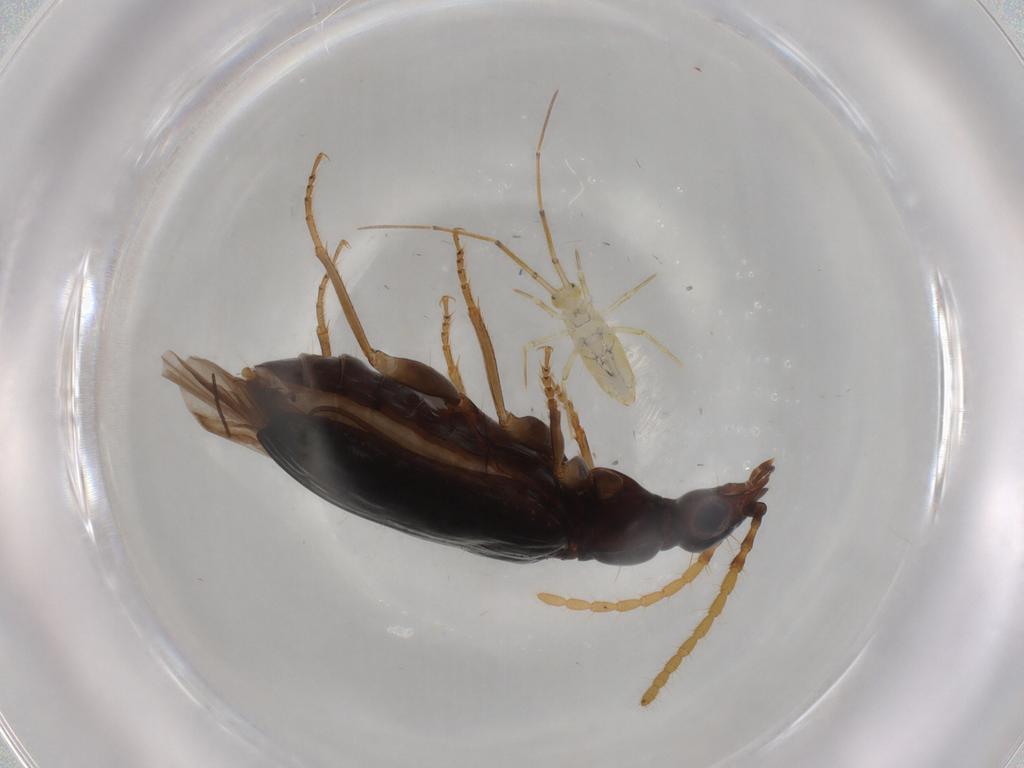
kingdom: Animalia
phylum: Arthropoda
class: Insecta
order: Coleoptera
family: Carabidae
